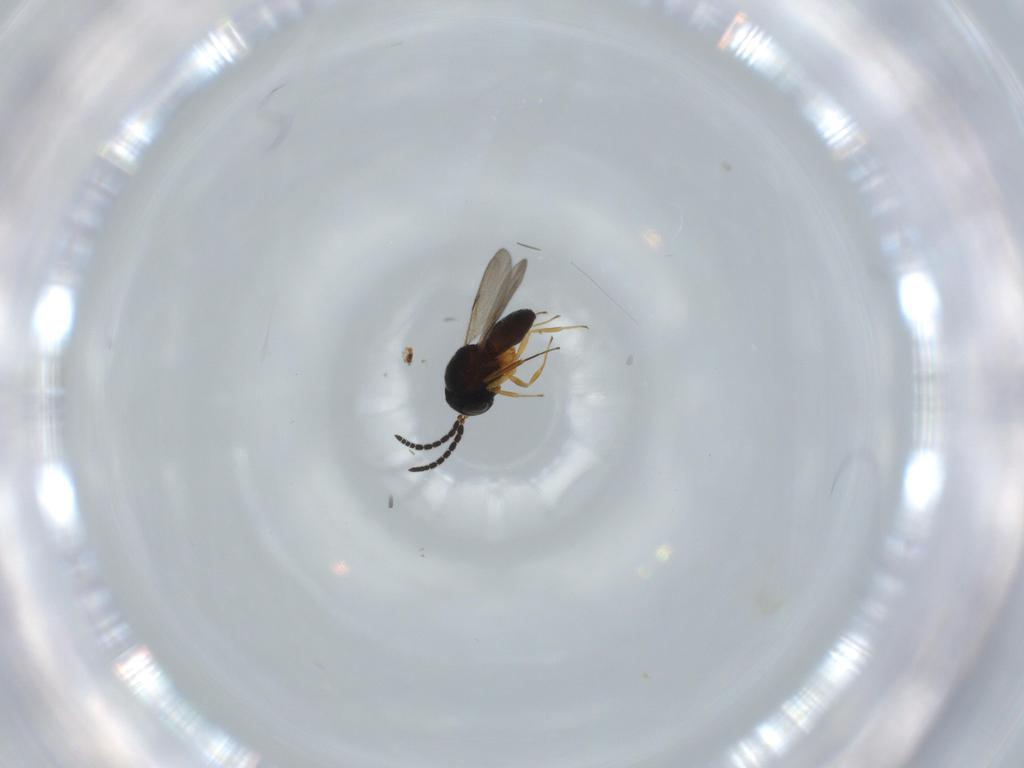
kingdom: Animalia
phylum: Arthropoda
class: Insecta
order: Hymenoptera
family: Scelionidae
